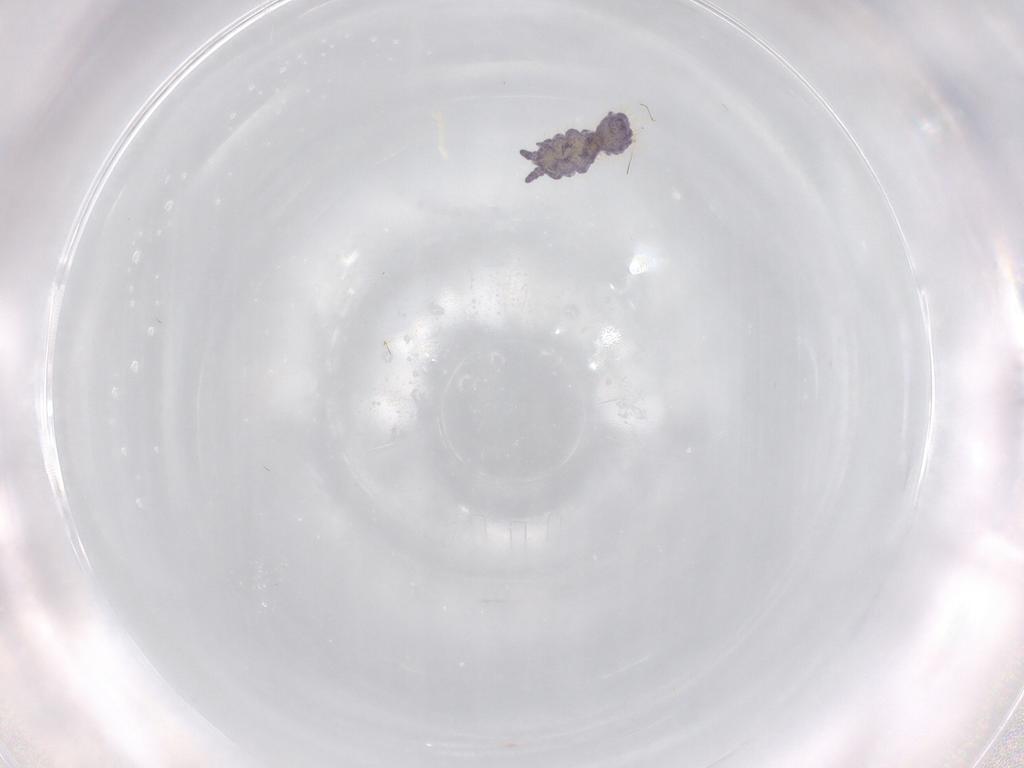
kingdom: Animalia
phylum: Arthropoda
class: Collembola
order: Poduromorpha
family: Neanuridae
